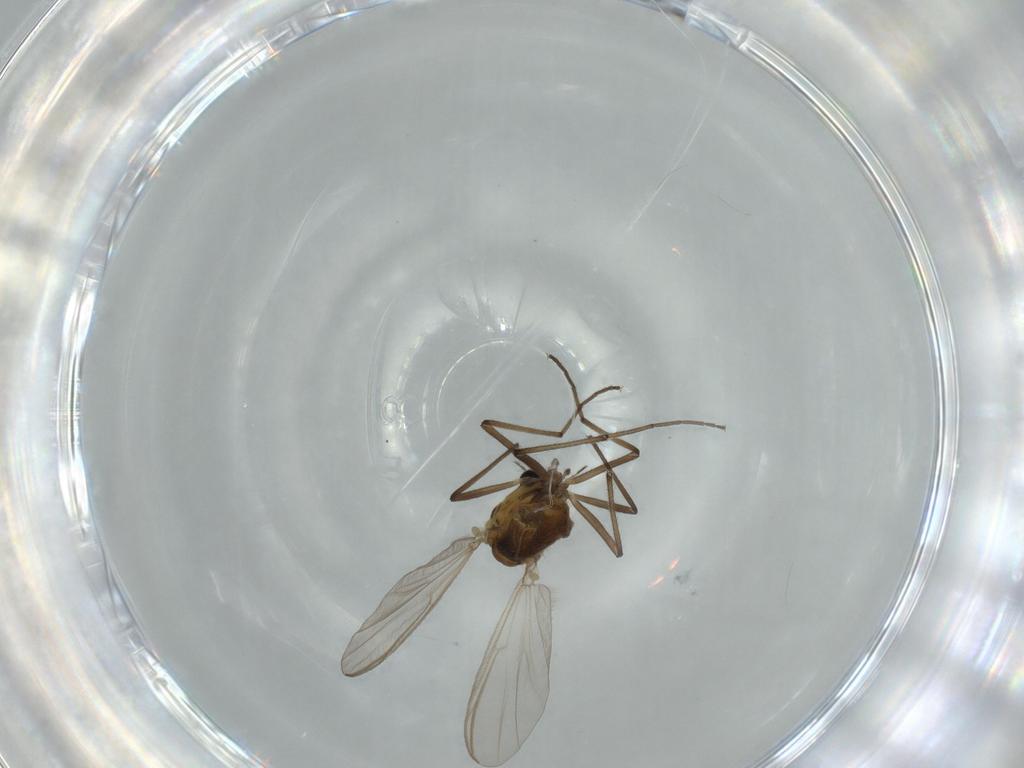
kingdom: Animalia
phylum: Arthropoda
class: Insecta
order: Diptera
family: Chironomidae
